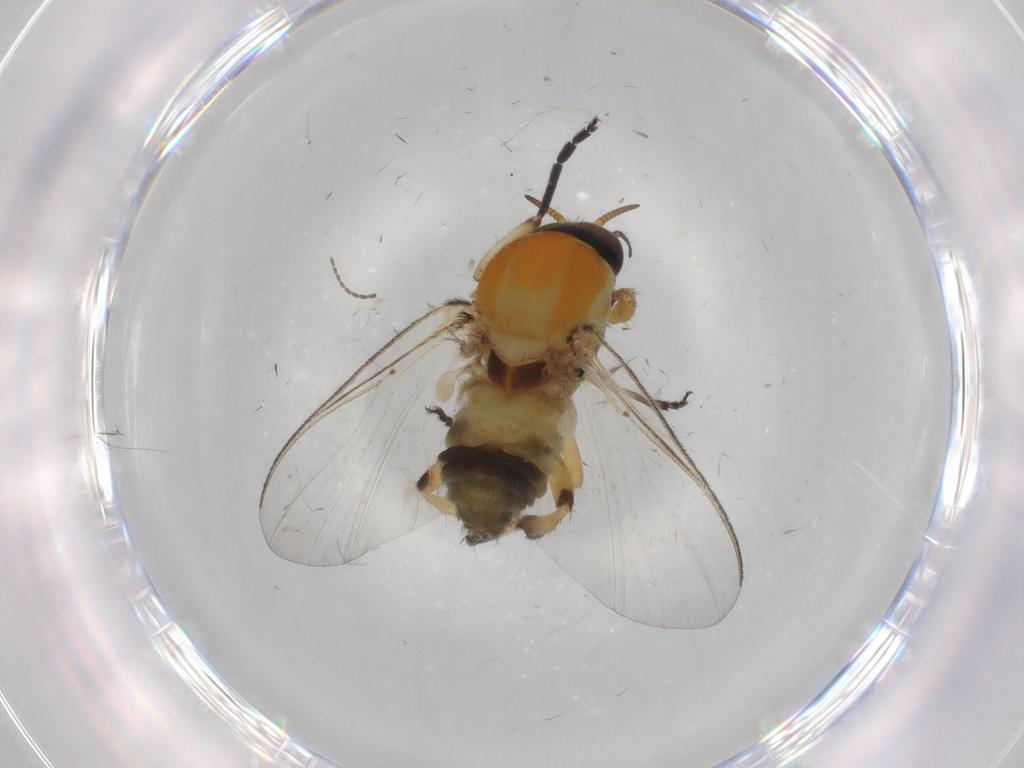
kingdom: Animalia
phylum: Arthropoda
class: Insecta
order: Diptera
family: Simuliidae
